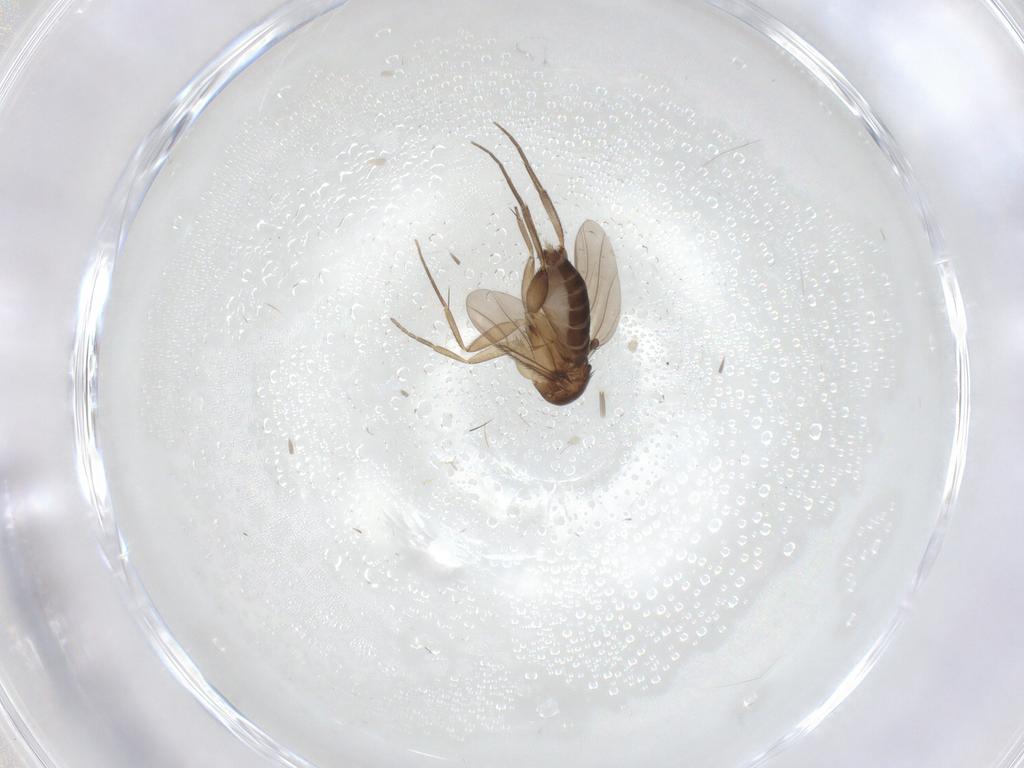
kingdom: Animalia
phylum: Arthropoda
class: Insecta
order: Diptera
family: Phoridae
